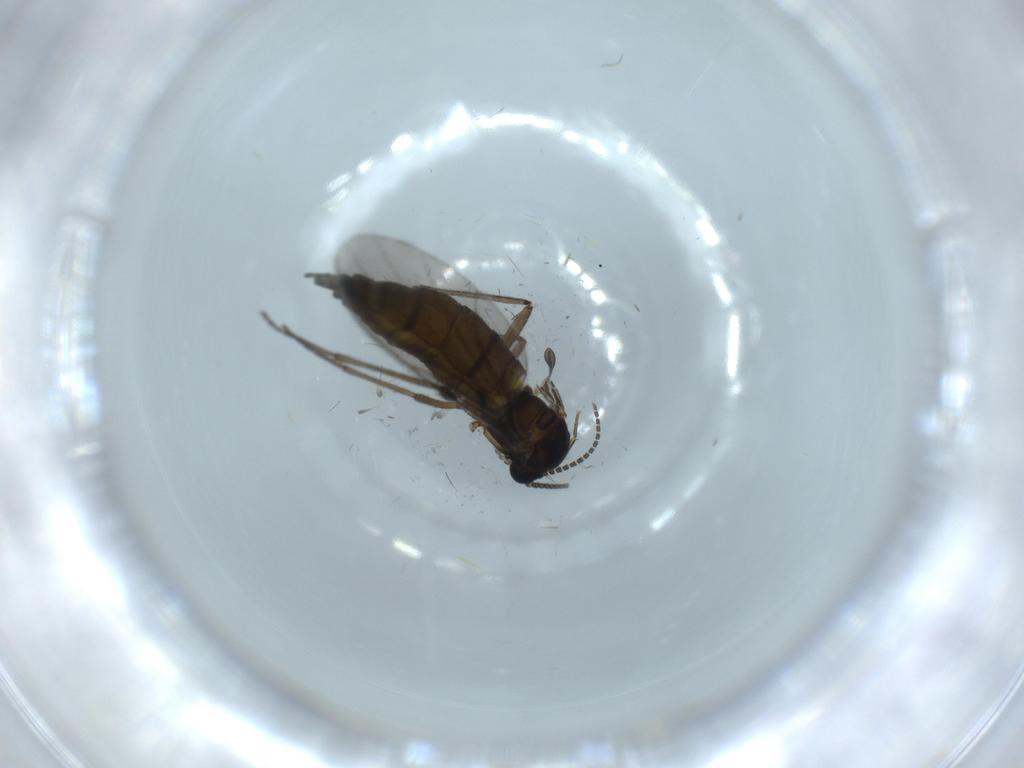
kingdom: Animalia
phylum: Arthropoda
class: Insecta
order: Diptera
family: Sciaridae
